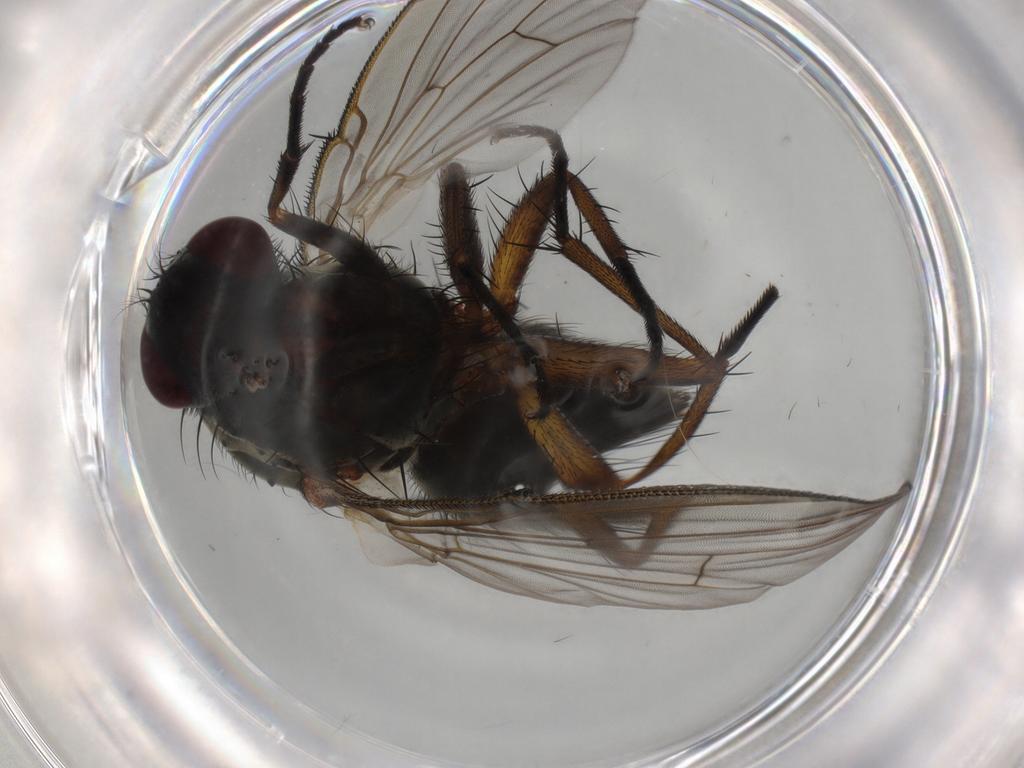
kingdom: Animalia
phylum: Arthropoda
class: Insecta
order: Diptera
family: Muscidae
